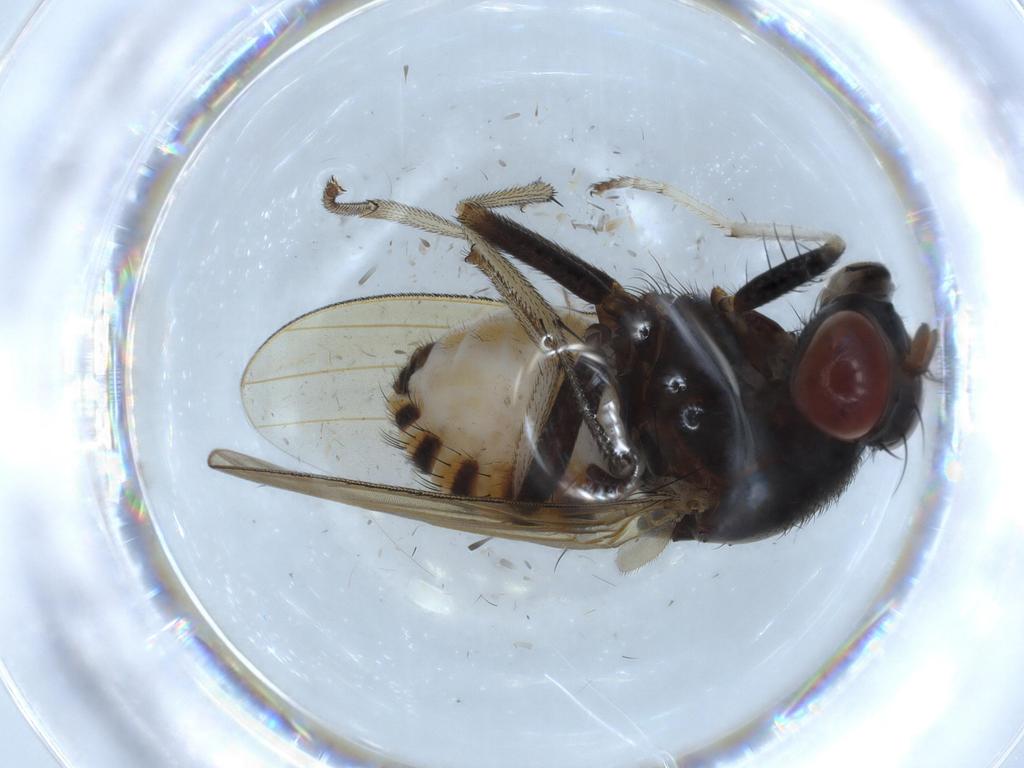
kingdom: Animalia
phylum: Arthropoda
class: Insecta
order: Diptera
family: Cecidomyiidae
